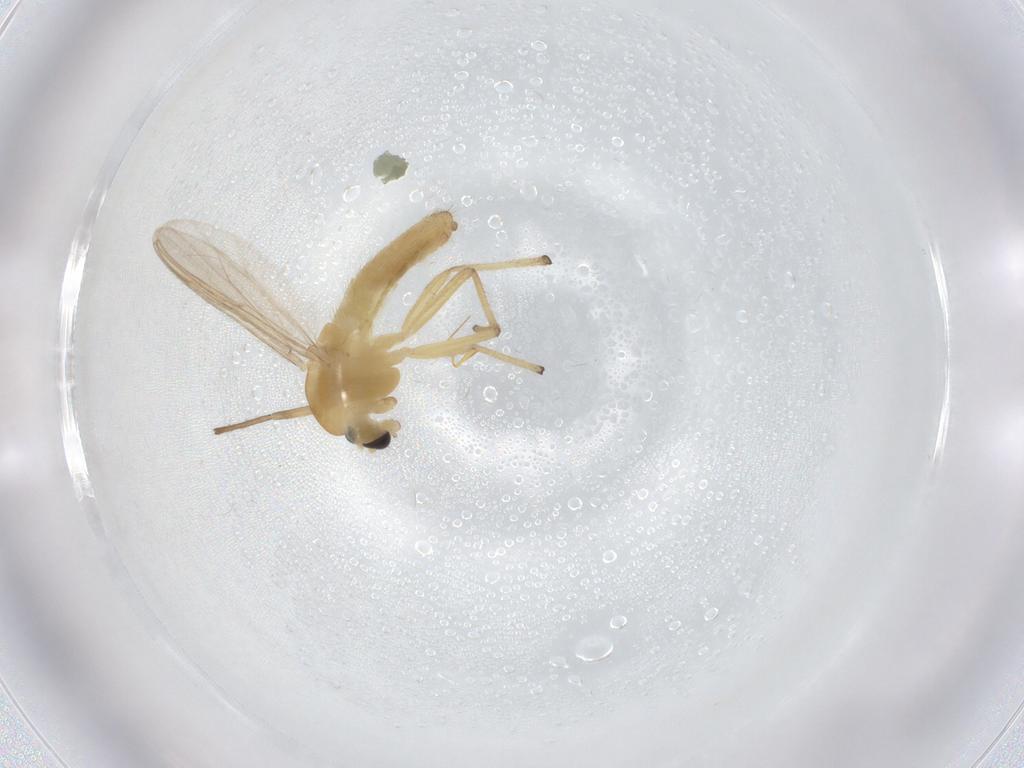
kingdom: Animalia
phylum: Arthropoda
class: Insecta
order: Diptera
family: Chironomidae
